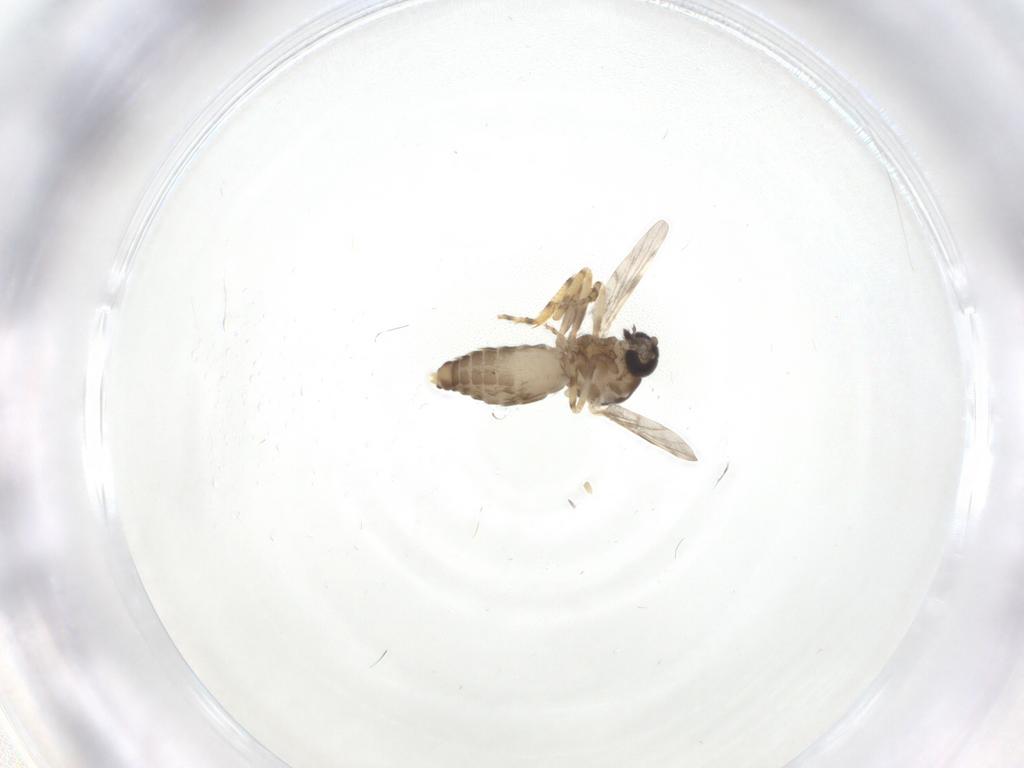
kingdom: Animalia
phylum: Arthropoda
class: Insecta
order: Diptera
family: Ceratopogonidae
